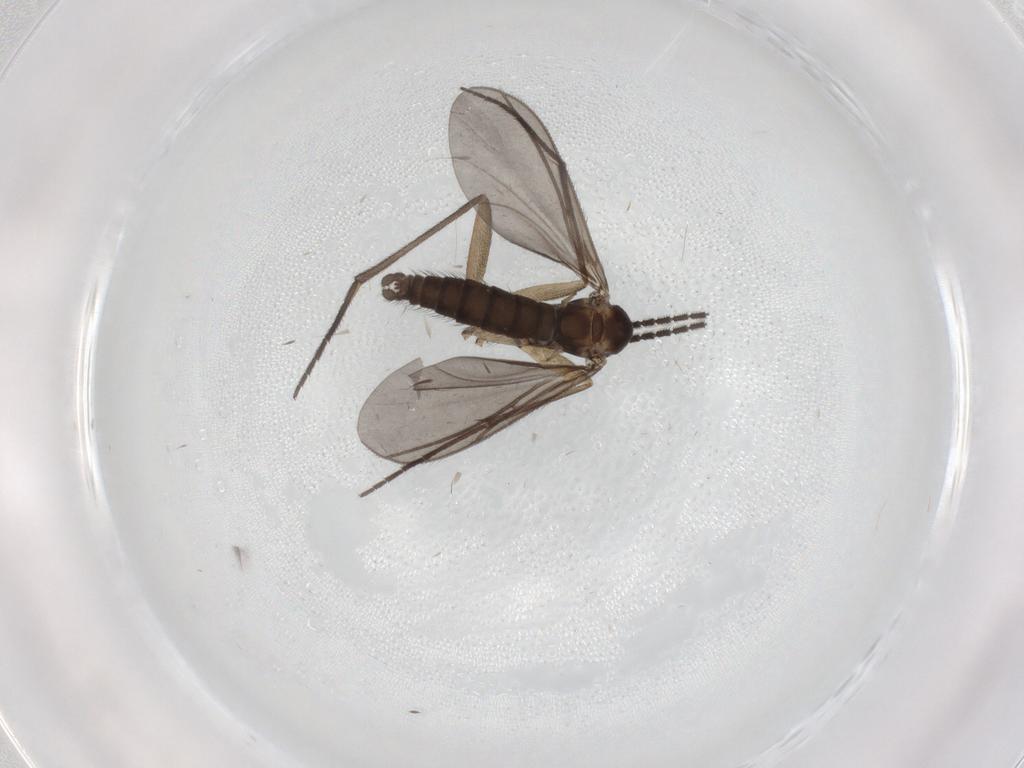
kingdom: Animalia
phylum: Arthropoda
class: Insecta
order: Diptera
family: Sciaridae
